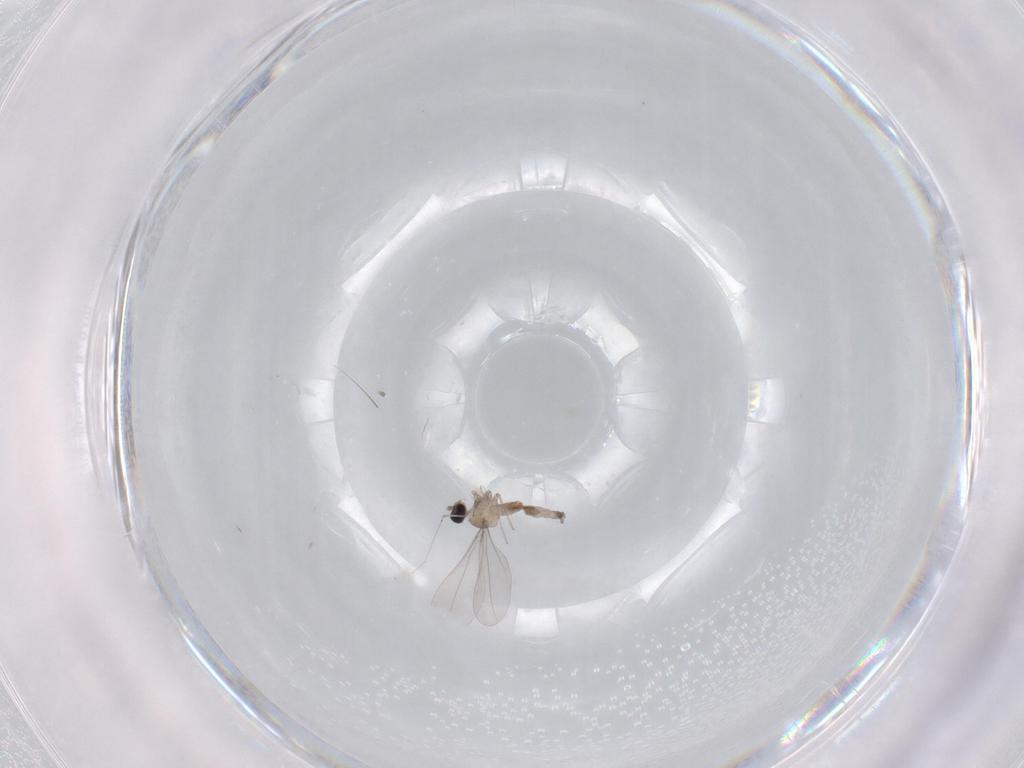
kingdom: Animalia
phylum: Arthropoda
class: Insecta
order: Diptera
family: Cecidomyiidae
